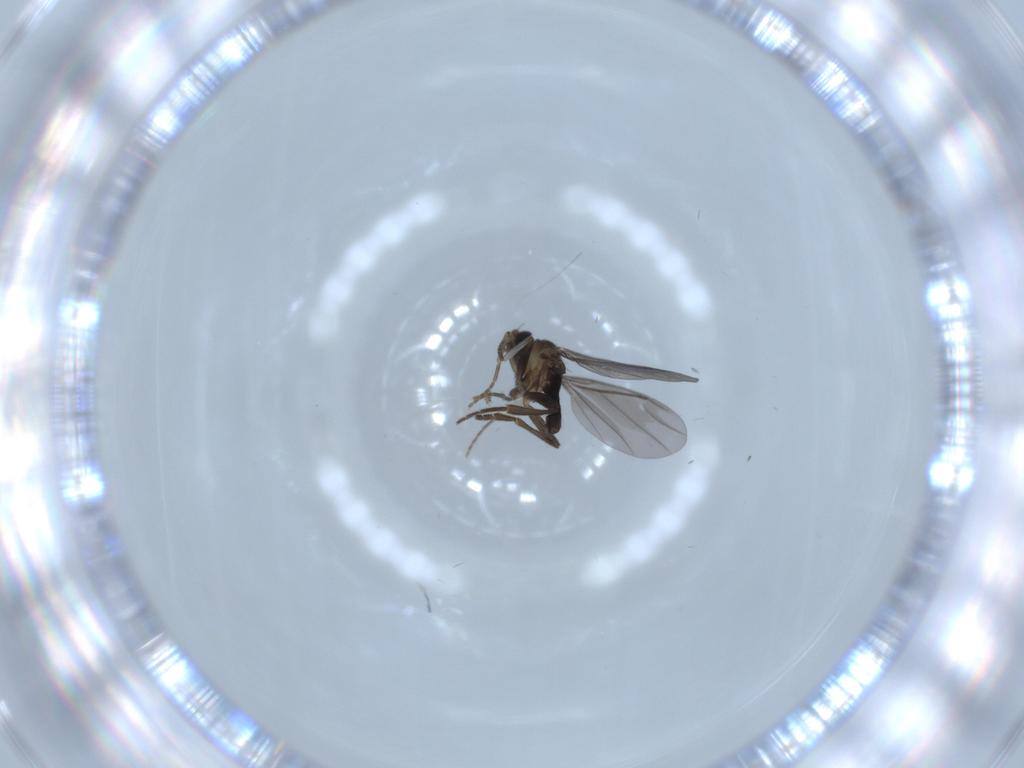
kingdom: Animalia
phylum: Arthropoda
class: Insecta
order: Diptera
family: Phoridae
